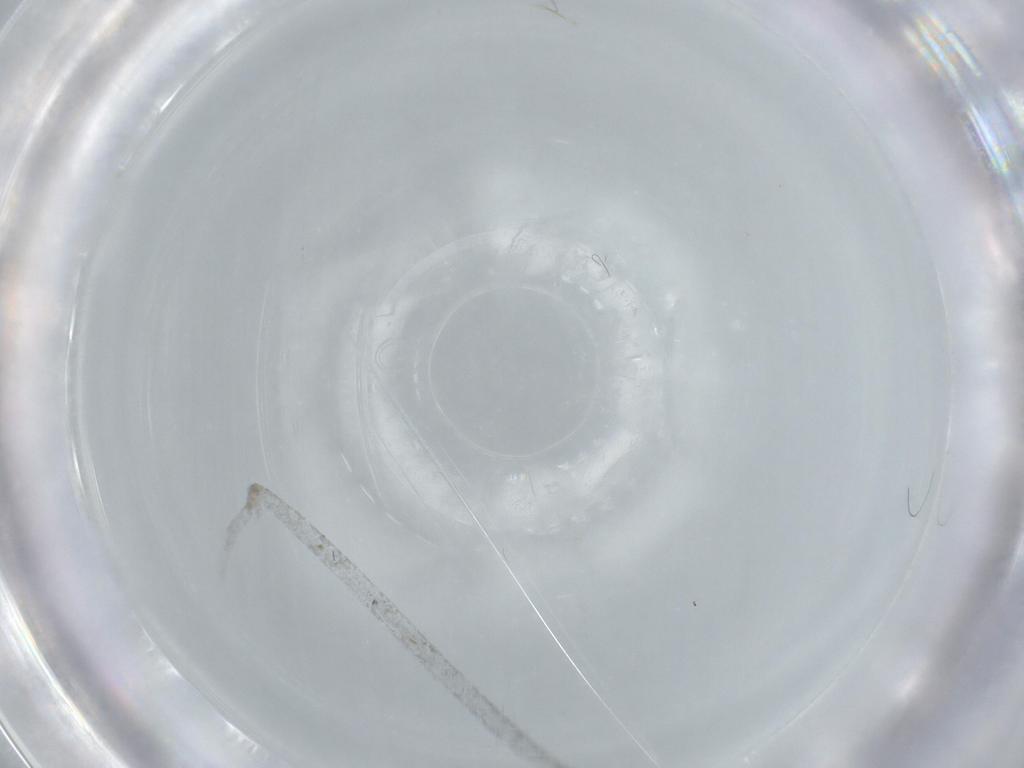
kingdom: Animalia
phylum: Arthropoda
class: Insecta
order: Diptera
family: Cecidomyiidae
